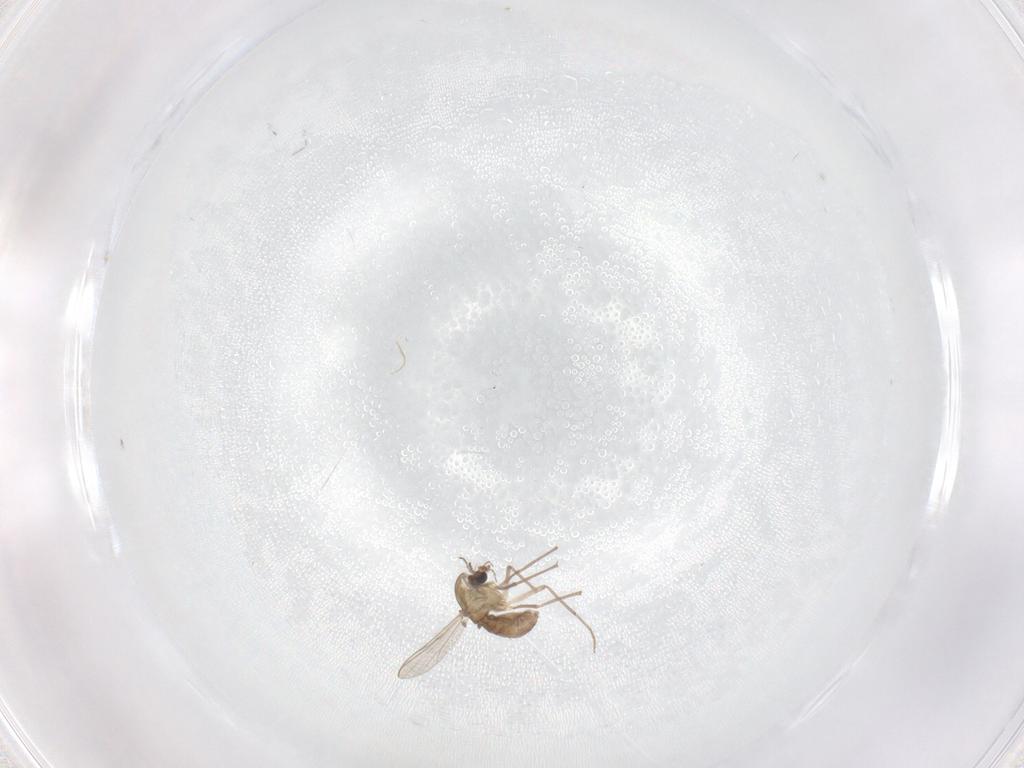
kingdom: Animalia
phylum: Arthropoda
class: Insecta
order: Diptera
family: Chironomidae
